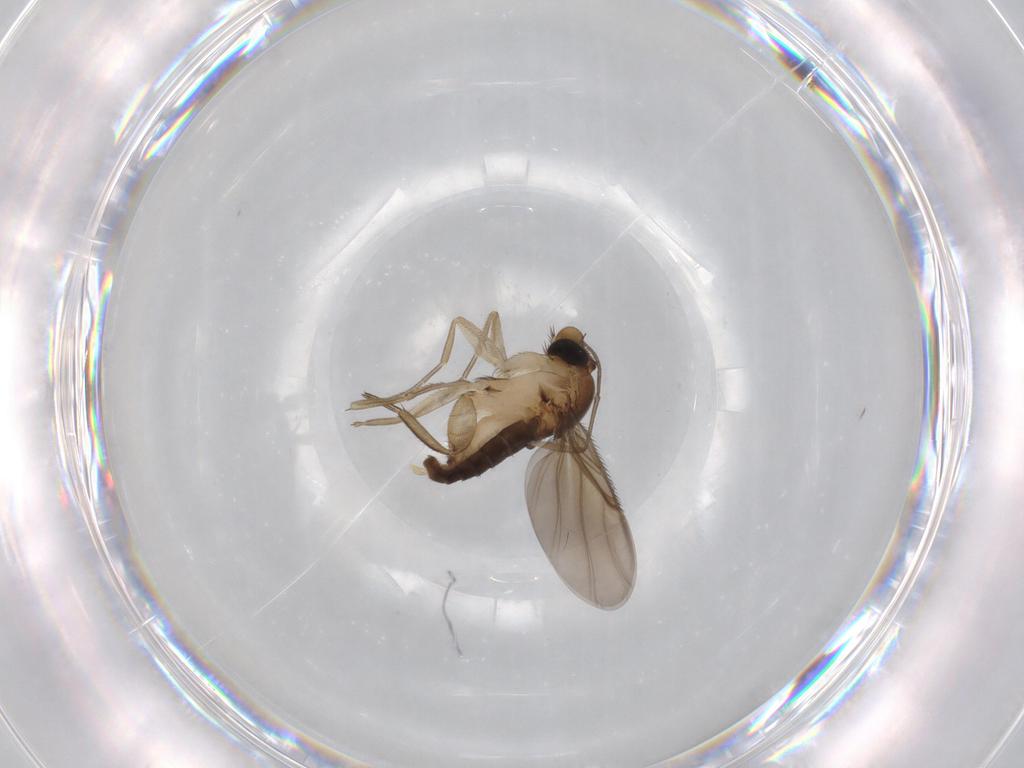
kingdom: Animalia
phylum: Arthropoda
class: Insecta
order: Diptera
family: Phoridae
